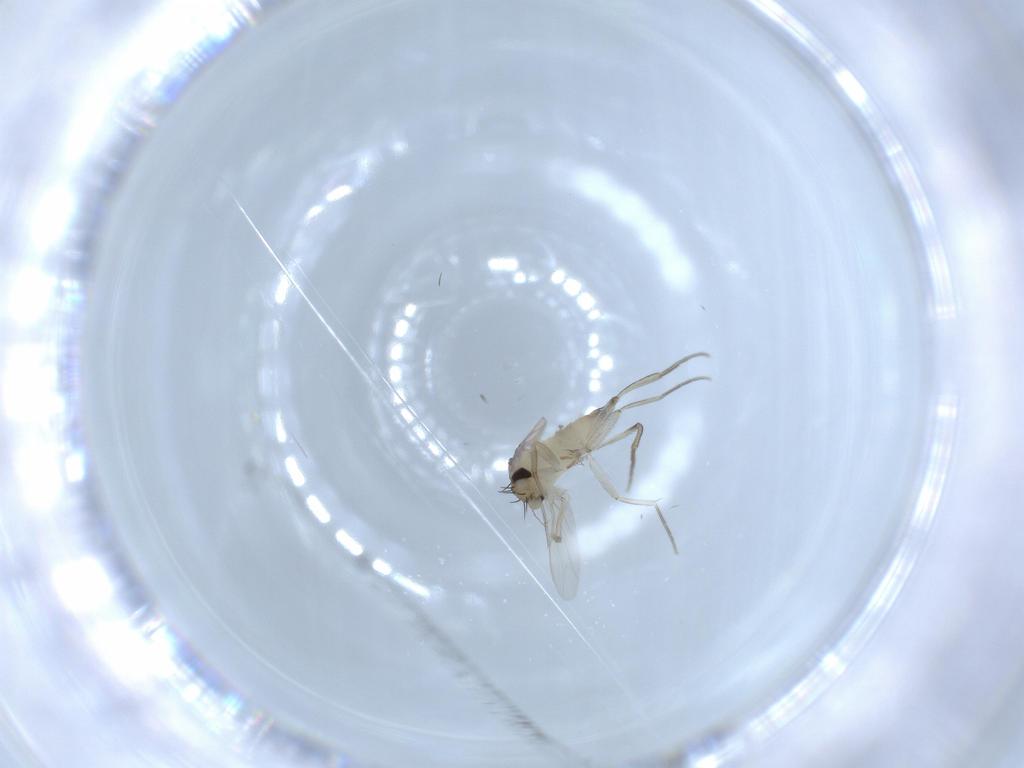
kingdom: Animalia
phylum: Arthropoda
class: Insecta
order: Diptera
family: Phoridae
